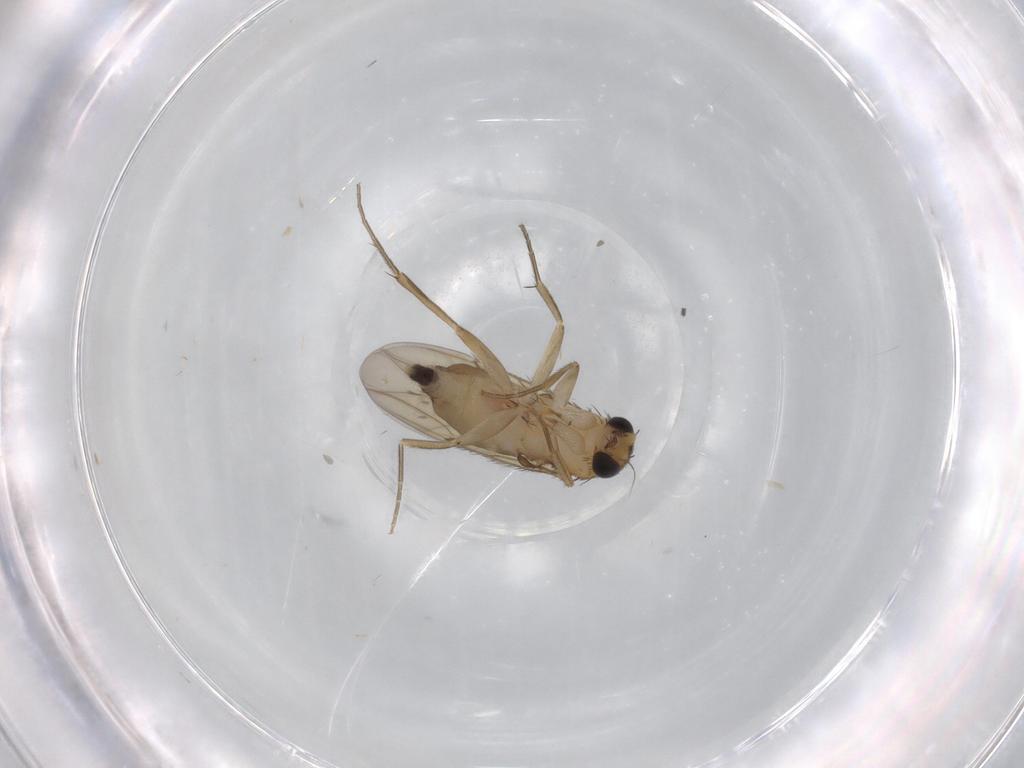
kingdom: Animalia
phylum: Arthropoda
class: Insecta
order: Diptera
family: Phoridae
